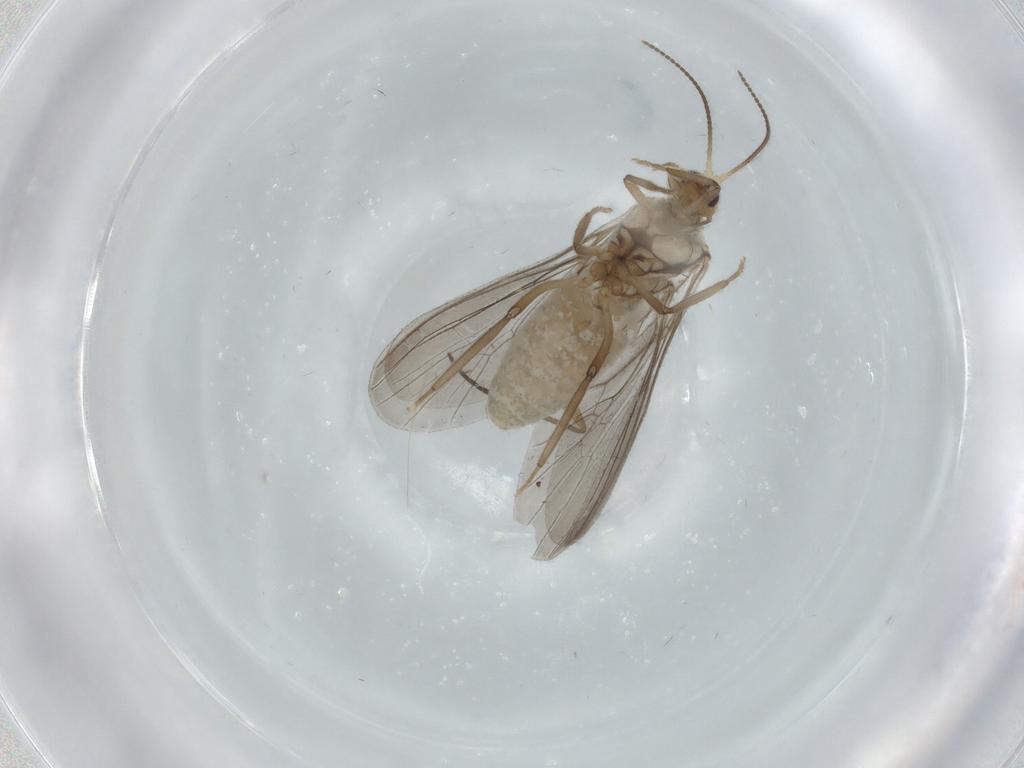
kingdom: Animalia
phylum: Arthropoda
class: Insecta
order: Neuroptera
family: Coniopterygidae
